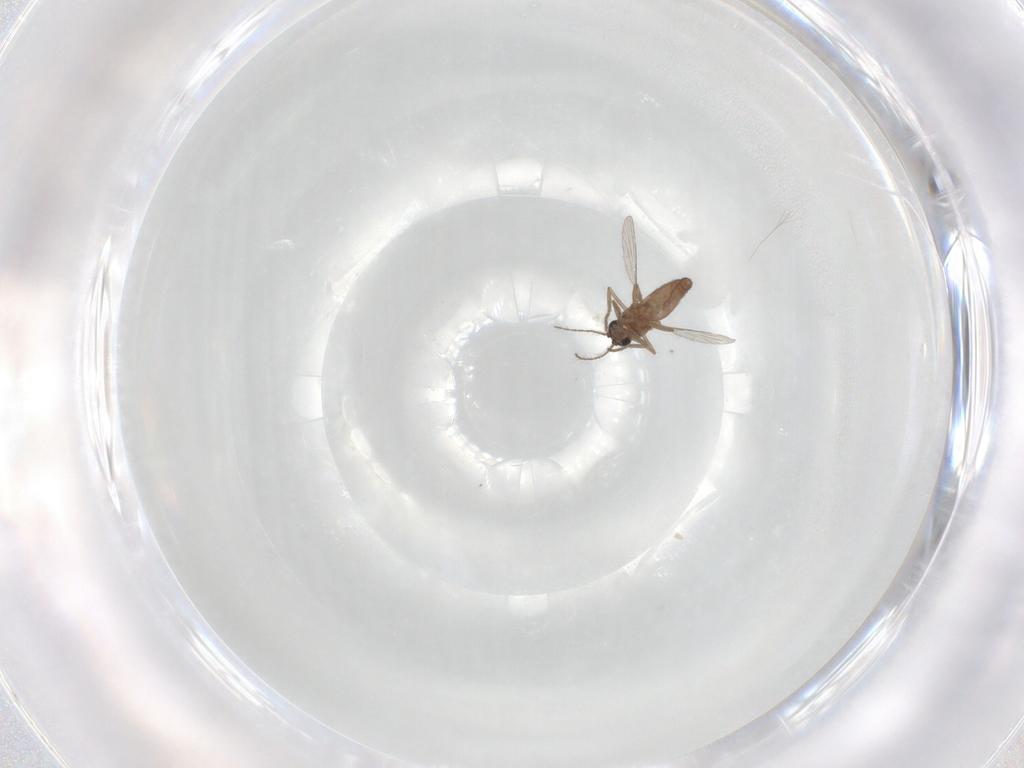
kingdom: Animalia
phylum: Arthropoda
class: Insecta
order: Diptera
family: Ceratopogonidae
